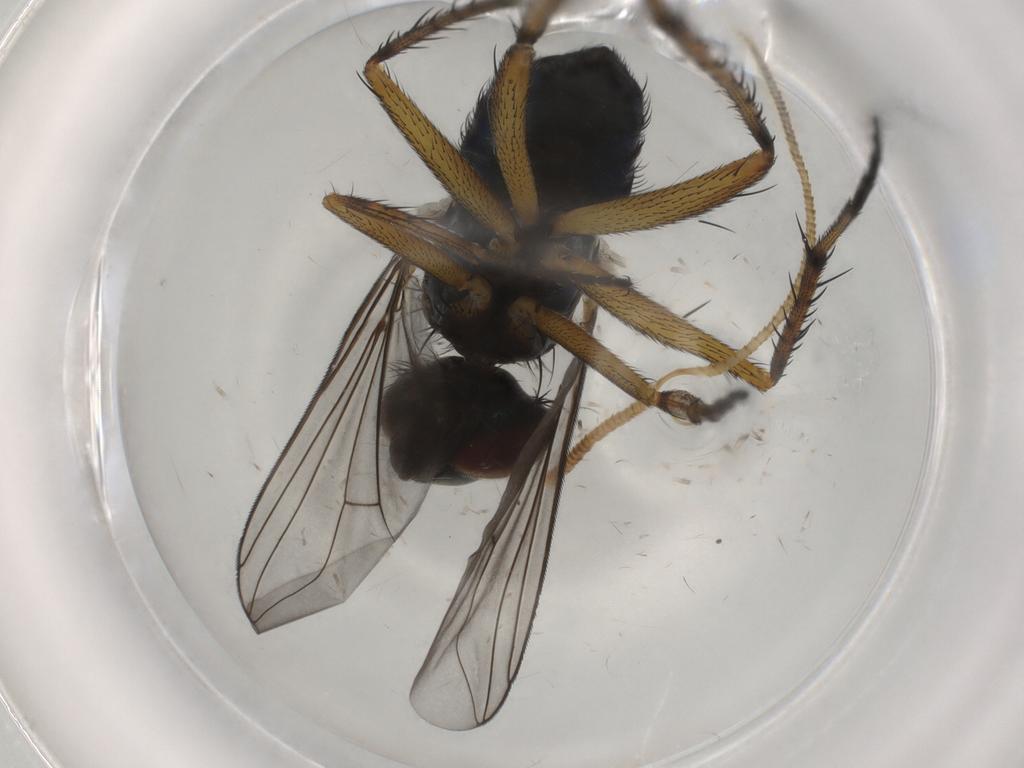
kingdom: Animalia
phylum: Arthropoda
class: Insecta
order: Diptera
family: Dolichopodidae
